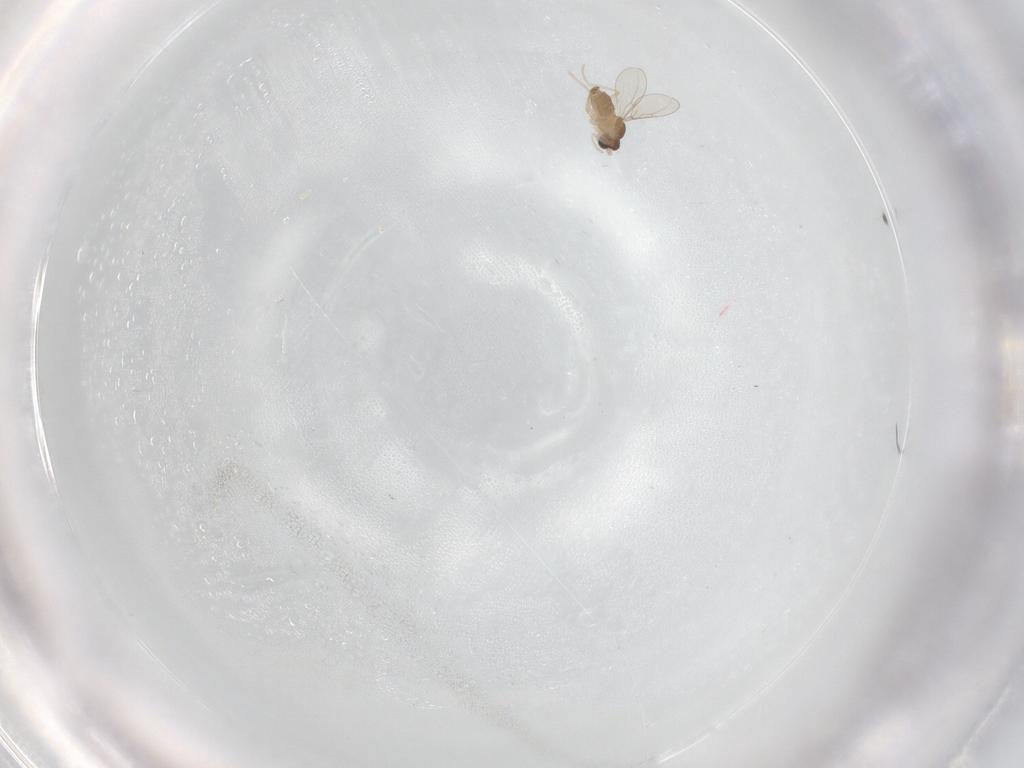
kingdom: Animalia
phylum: Arthropoda
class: Insecta
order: Diptera
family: Cecidomyiidae
